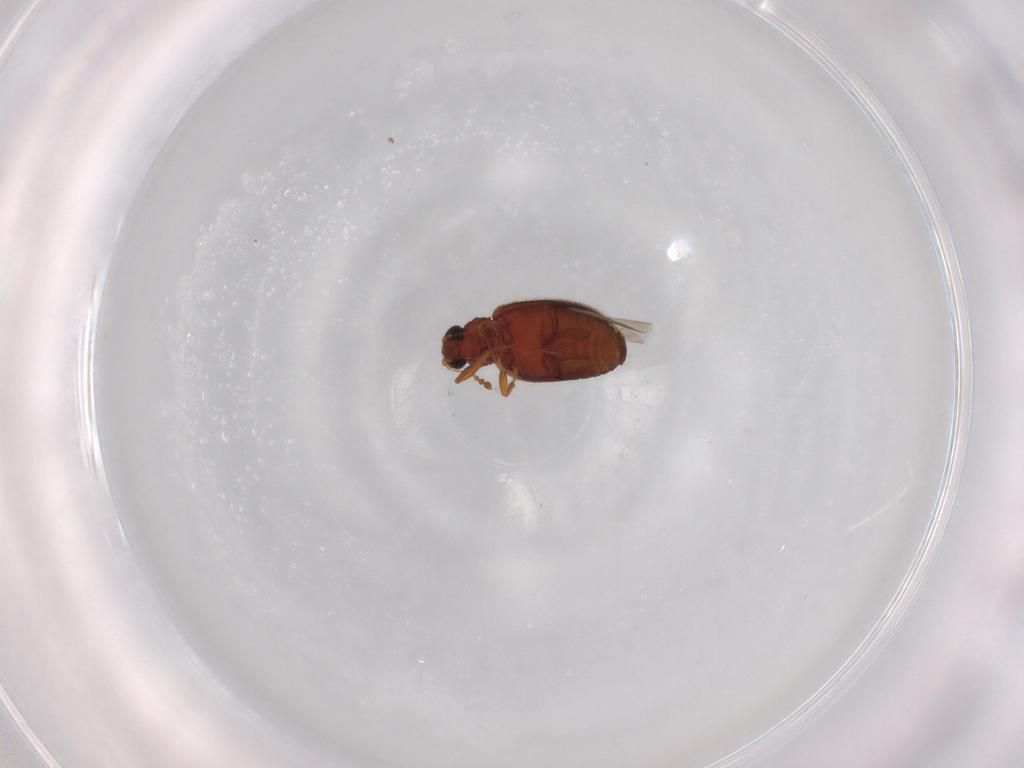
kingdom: Animalia
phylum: Arthropoda
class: Insecta
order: Coleoptera
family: Latridiidae
